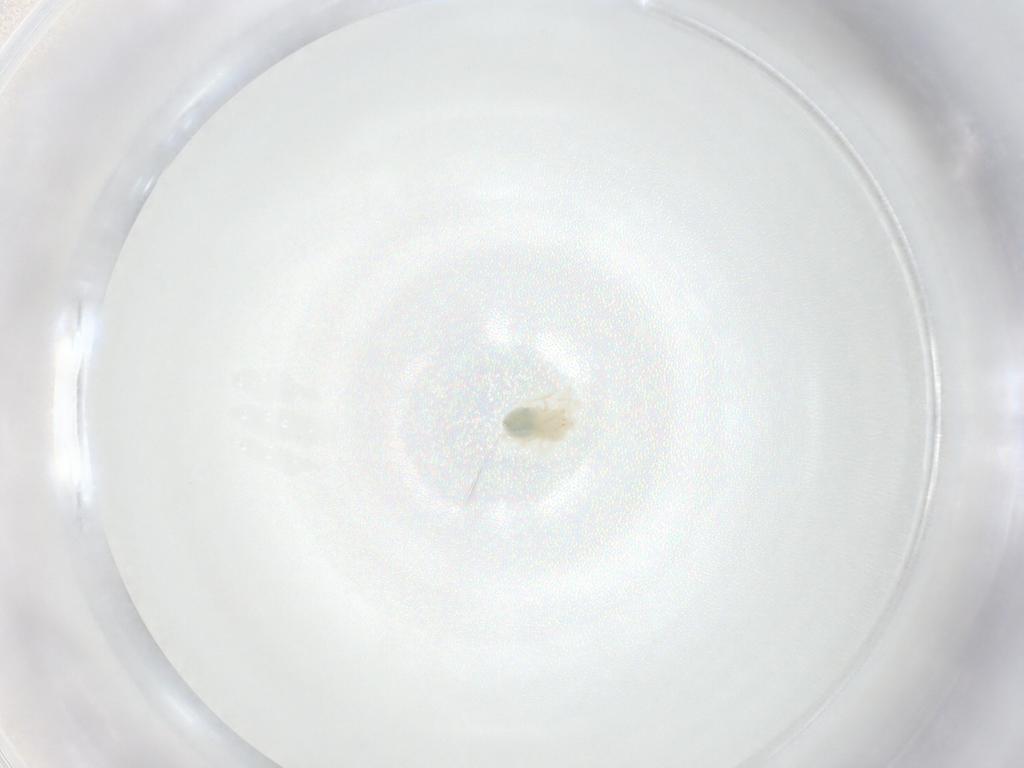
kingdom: Animalia
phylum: Arthropoda
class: Arachnida
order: Trombidiformes
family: Anystidae
